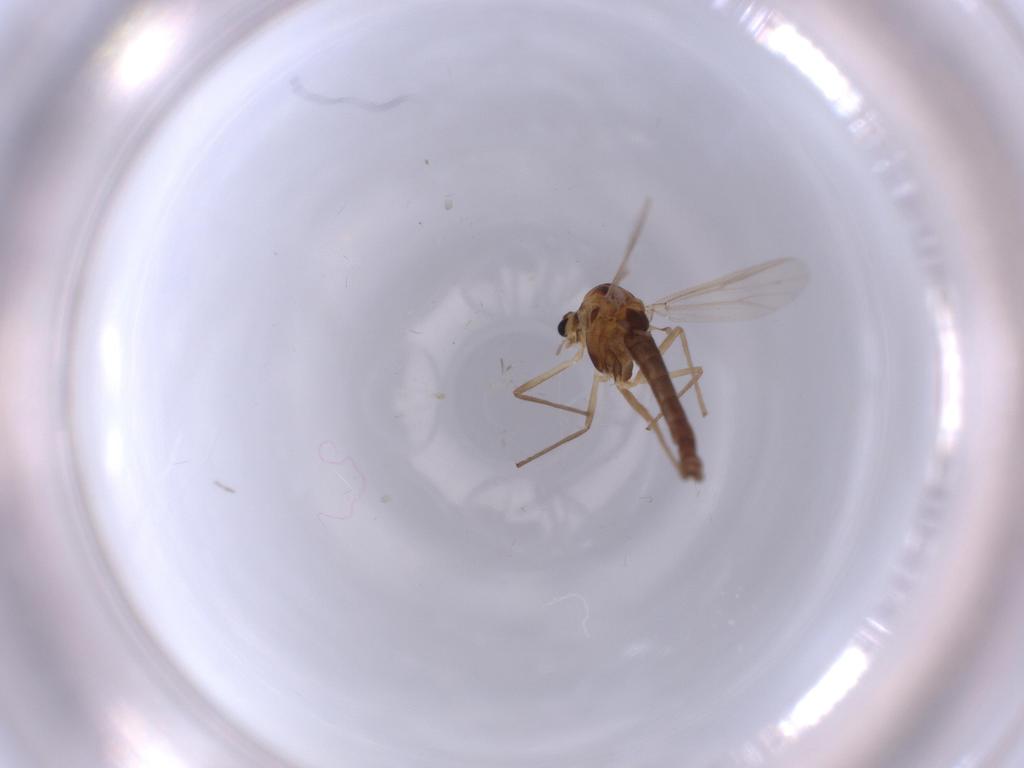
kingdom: Animalia
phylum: Arthropoda
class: Insecta
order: Diptera
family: Chironomidae
